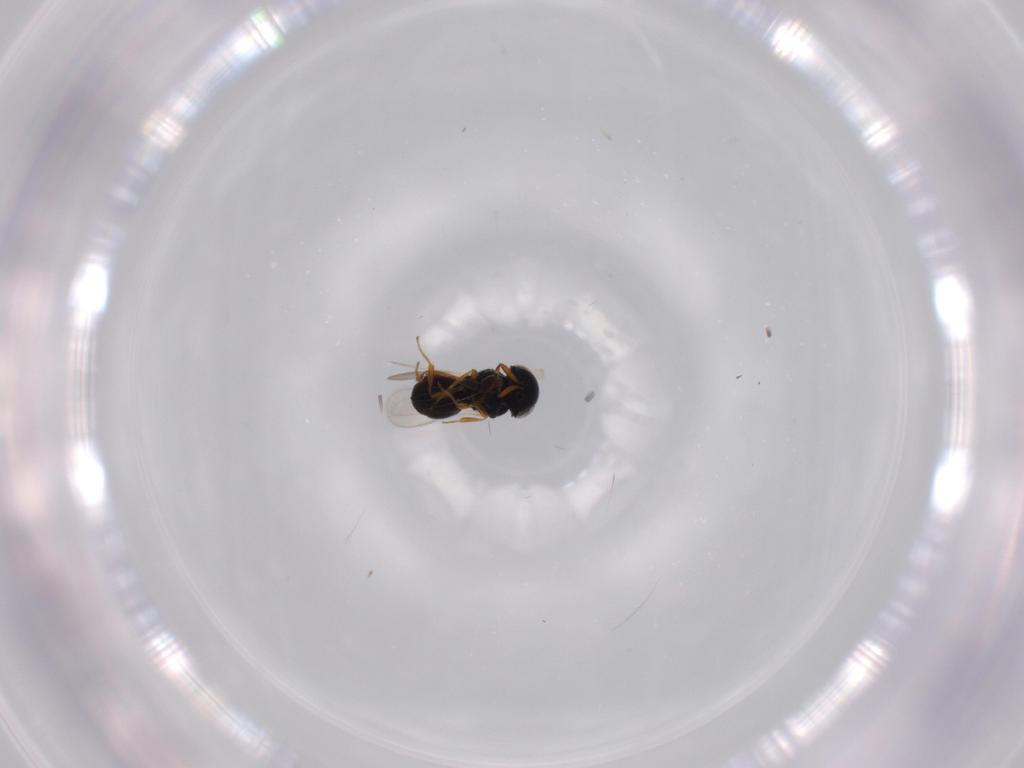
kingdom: Animalia
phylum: Arthropoda
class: Insecta
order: Hymenoptera
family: Scelionidae
